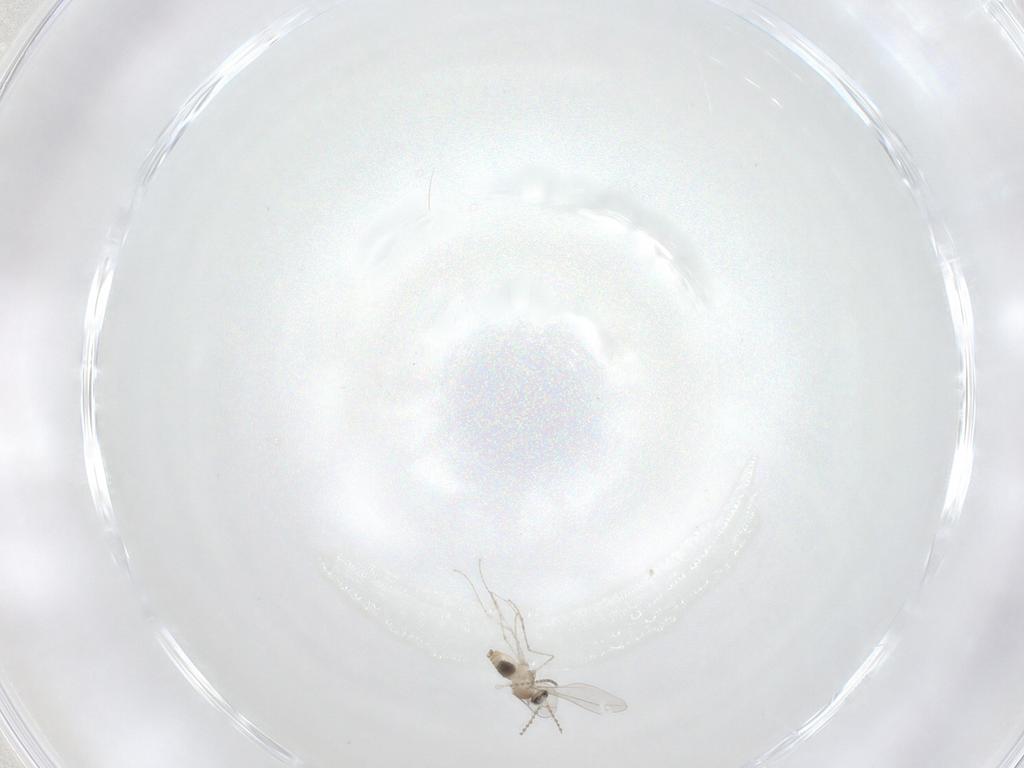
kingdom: Animalia
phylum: Arthropoda
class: Insecta
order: Diptera
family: Cecidomyiidae
